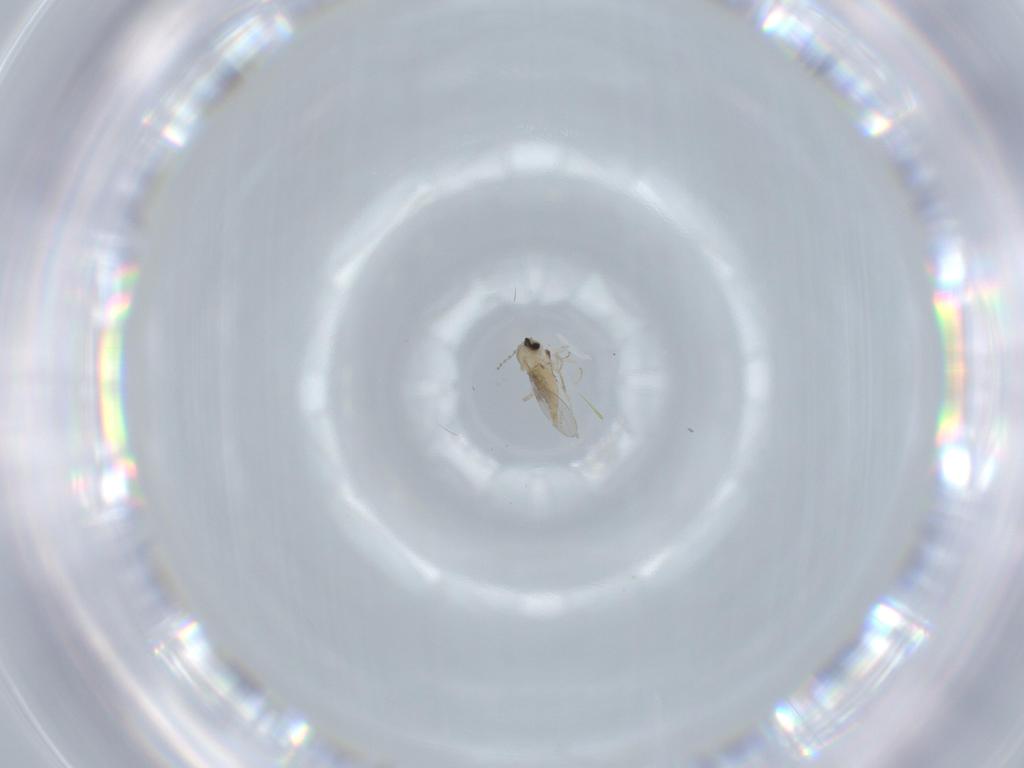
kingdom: Animalia
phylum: Arthropoda
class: Insecta
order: Diptera
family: Cecidomyiidae
